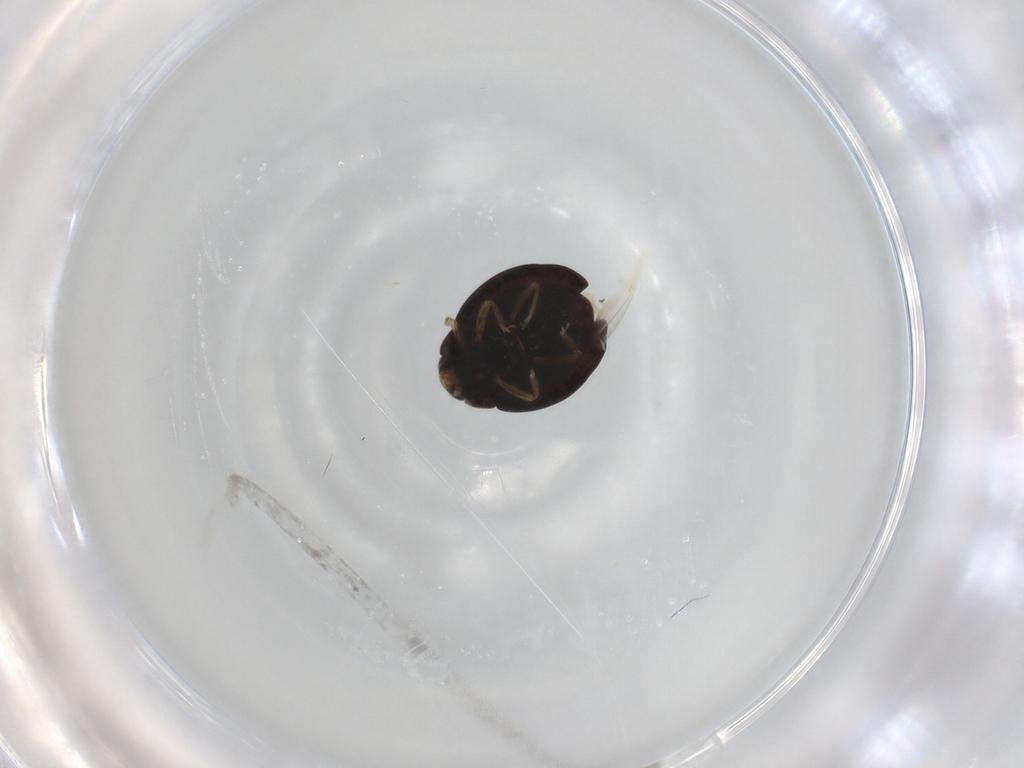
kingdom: Animalia
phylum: Arthropoda
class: Insecta
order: Coleoptera
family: Coccinellidae
